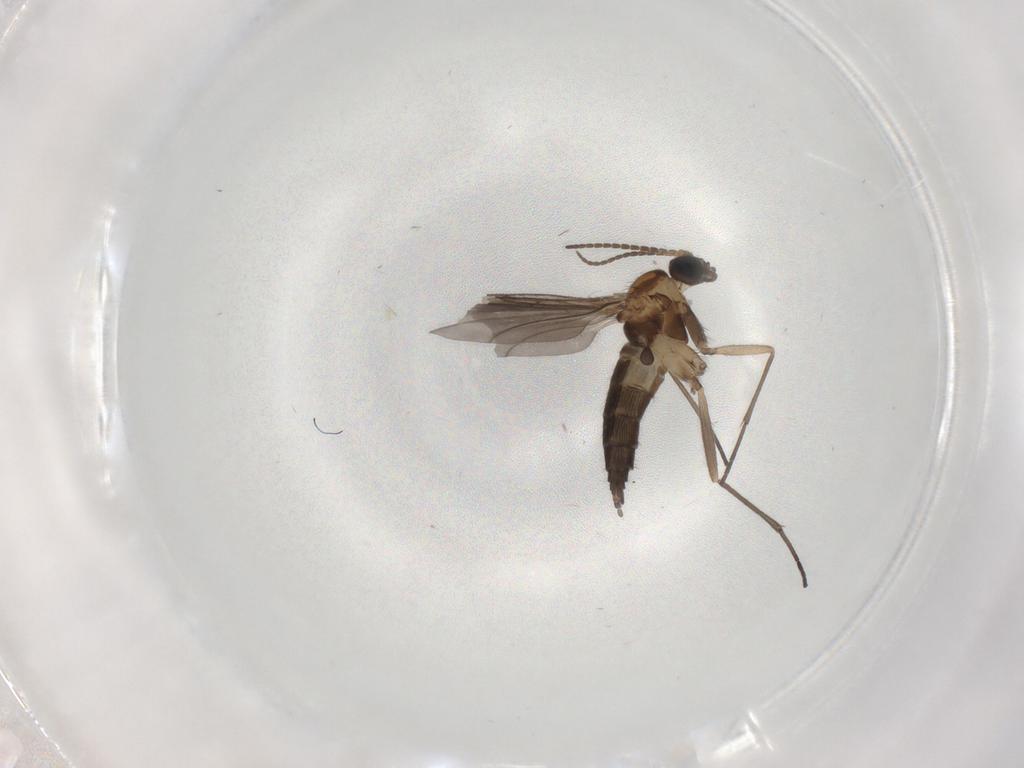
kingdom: Animalia
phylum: Arthropoda
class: Insecta
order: Diptera
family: Sciaridae
